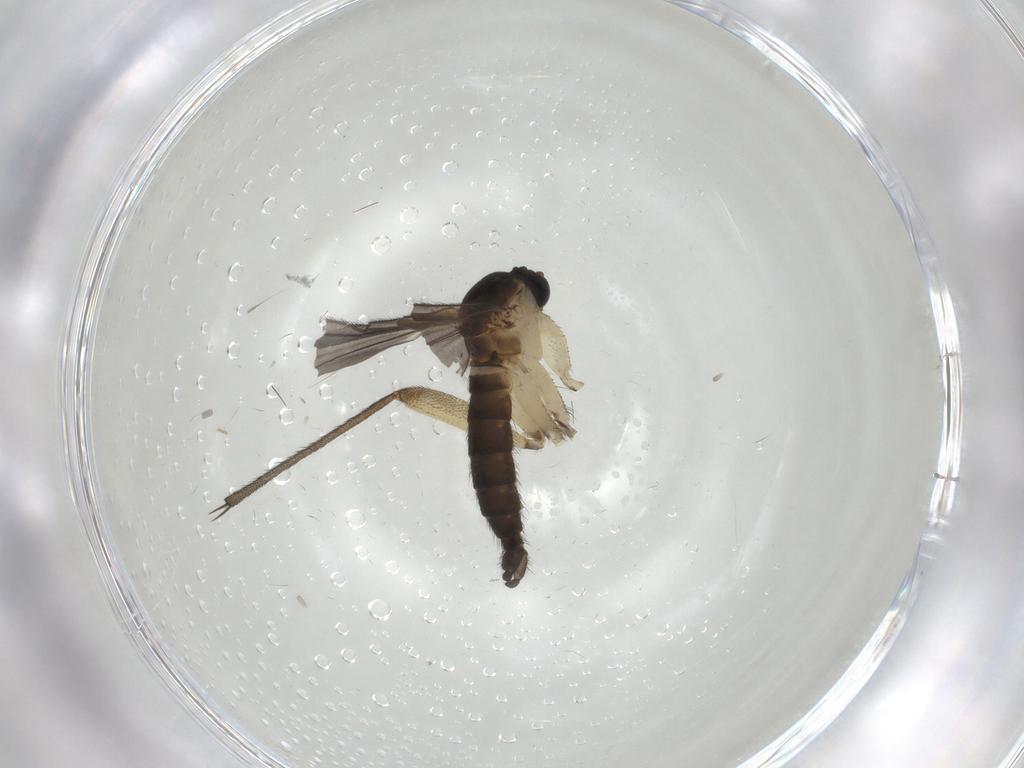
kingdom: Animalia
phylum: Arthropoda
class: Insecta
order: Diptera
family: Sciaridae
